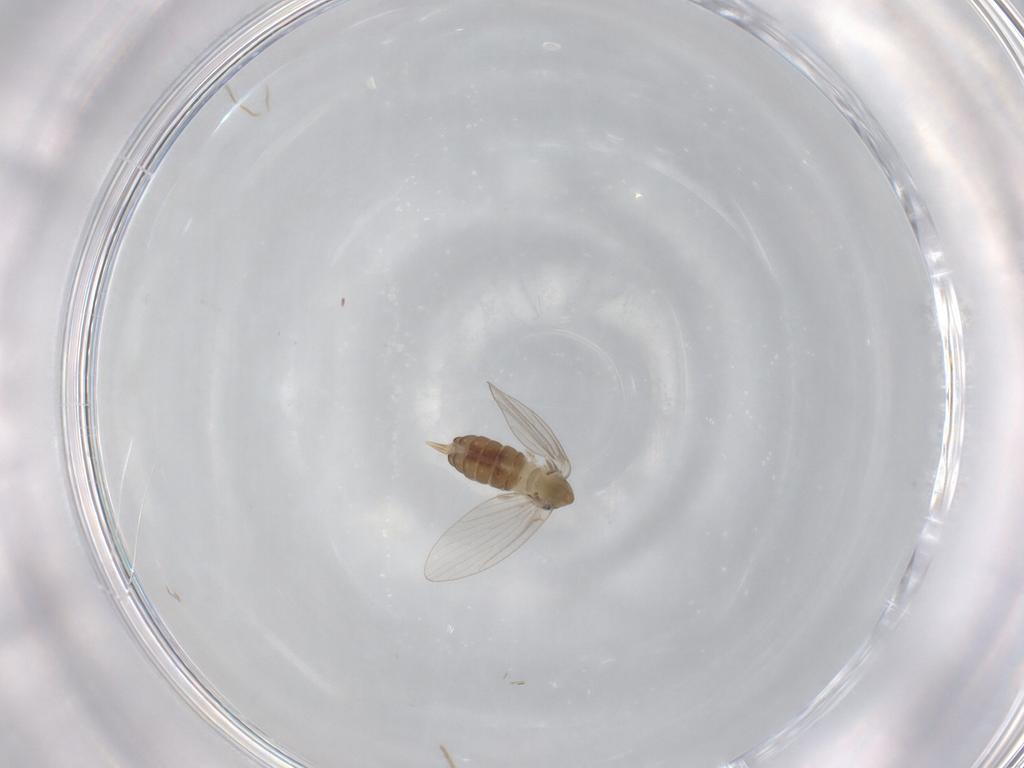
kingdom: Animalia
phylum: Arthropoda
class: Insecta
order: Diptera
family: Psychodidae
